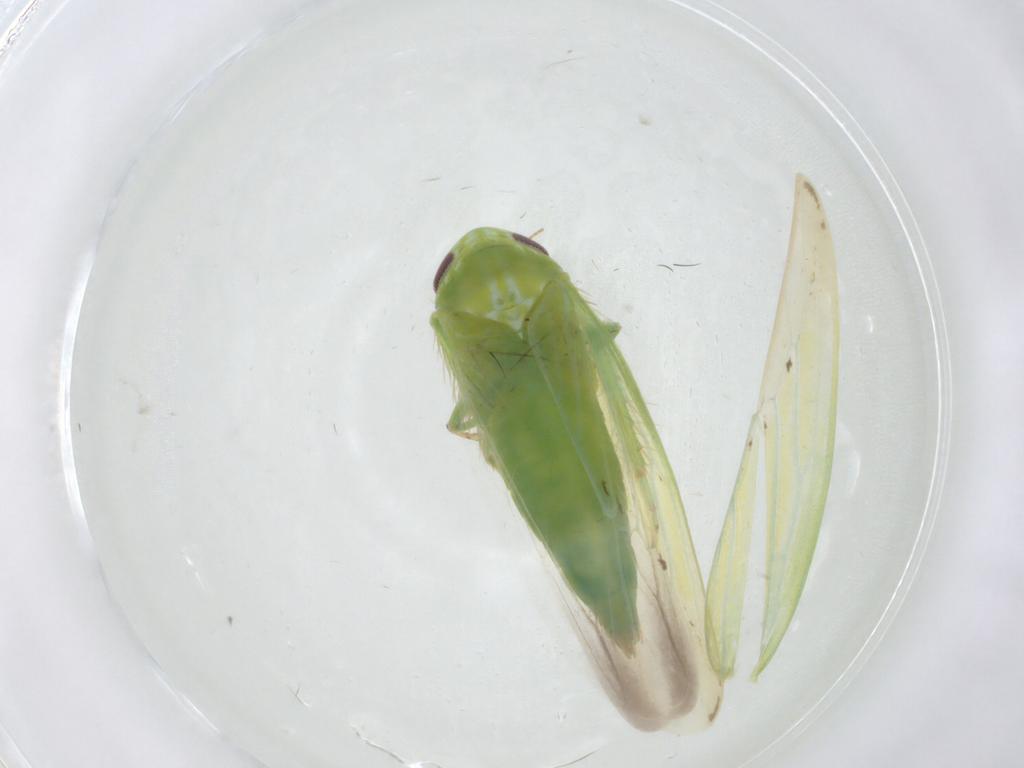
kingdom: Animalia
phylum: Arthropoda
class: Insecta
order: Hemiptera
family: Cicadellidae
